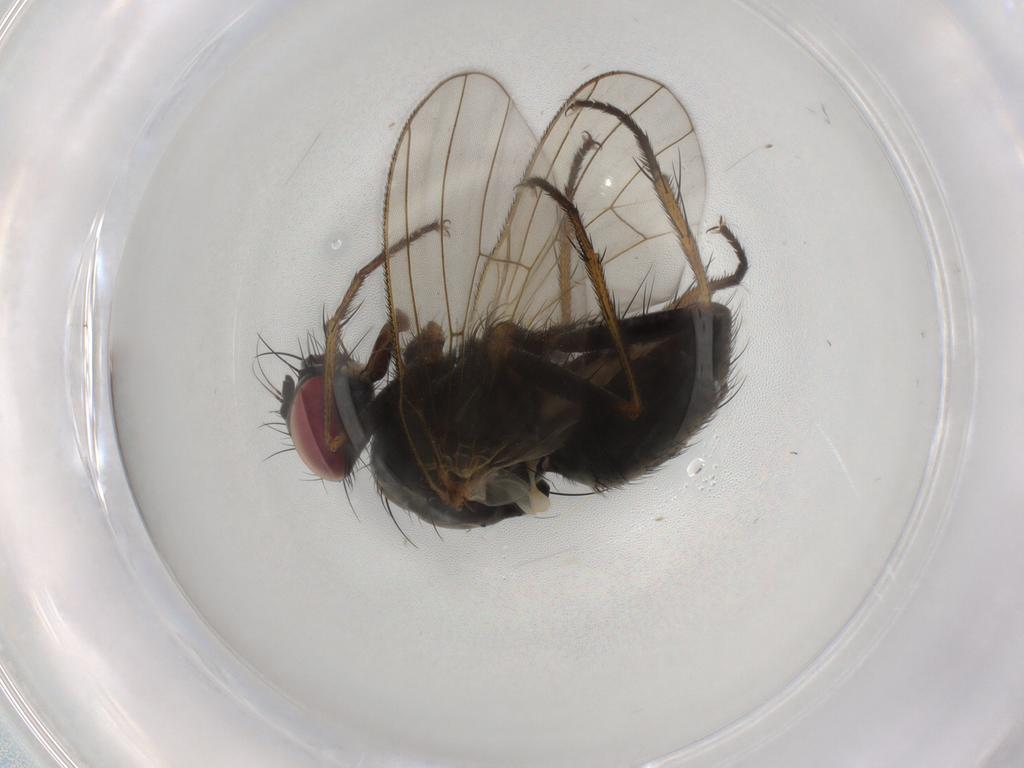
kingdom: Animalia
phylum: Arthropoda
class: Insecta
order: Diptera
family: Muscidae
